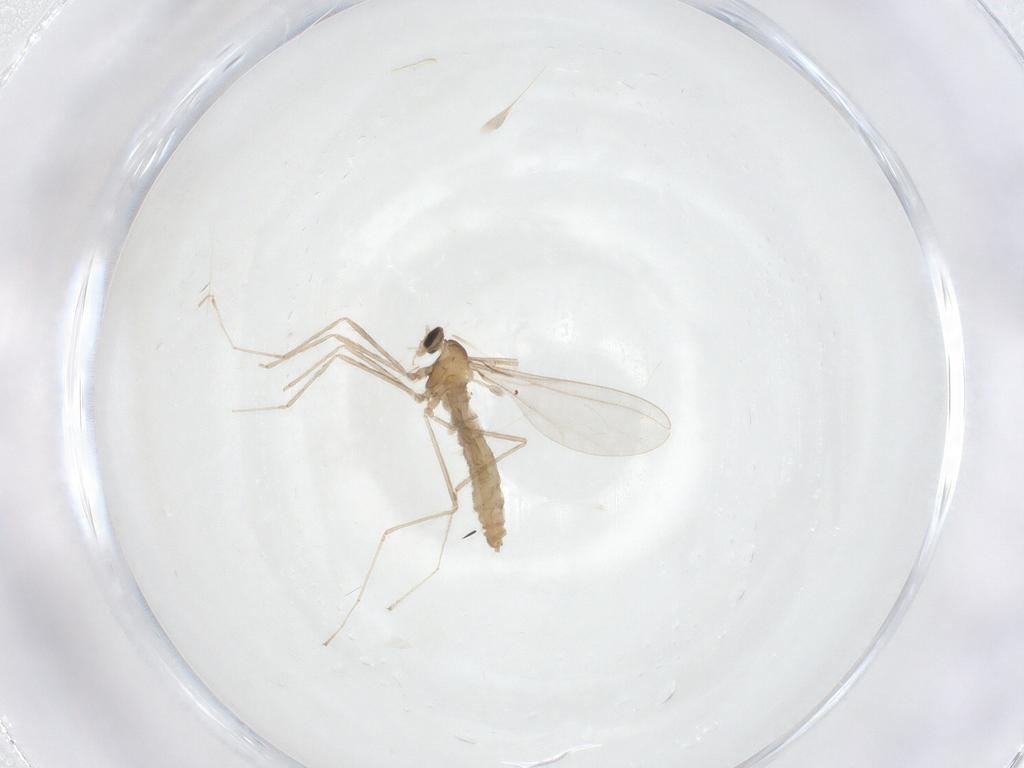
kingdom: Animalia
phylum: Arthropoda
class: Insecta
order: Diptera
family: Cecidomyiidae
